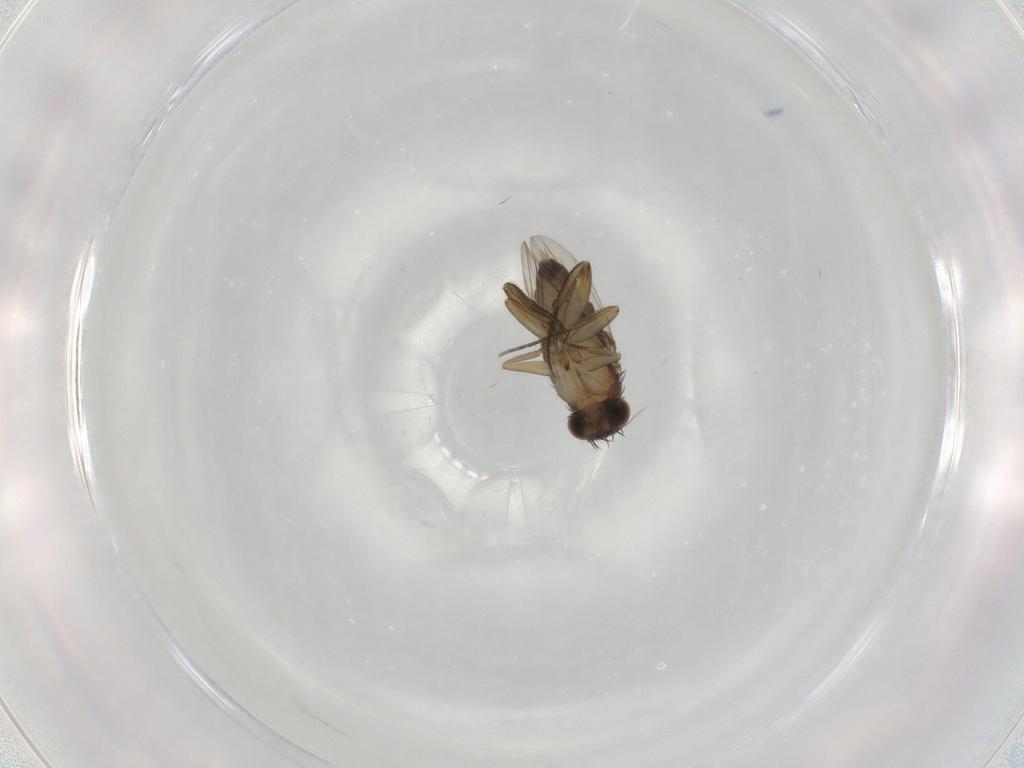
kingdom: Animalia
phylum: Arthropoda
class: Insecta
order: Diptera
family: Phoridae
